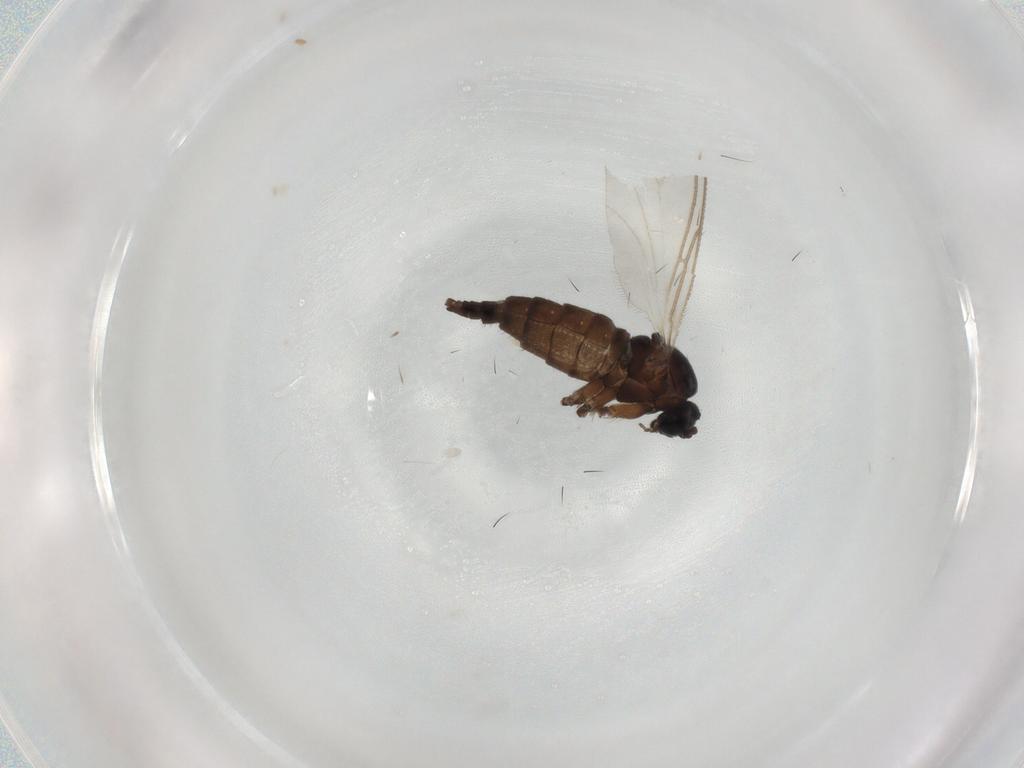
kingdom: Animalia
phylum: Arthropoda
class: Insecta
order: Diptera
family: Sciaridae
